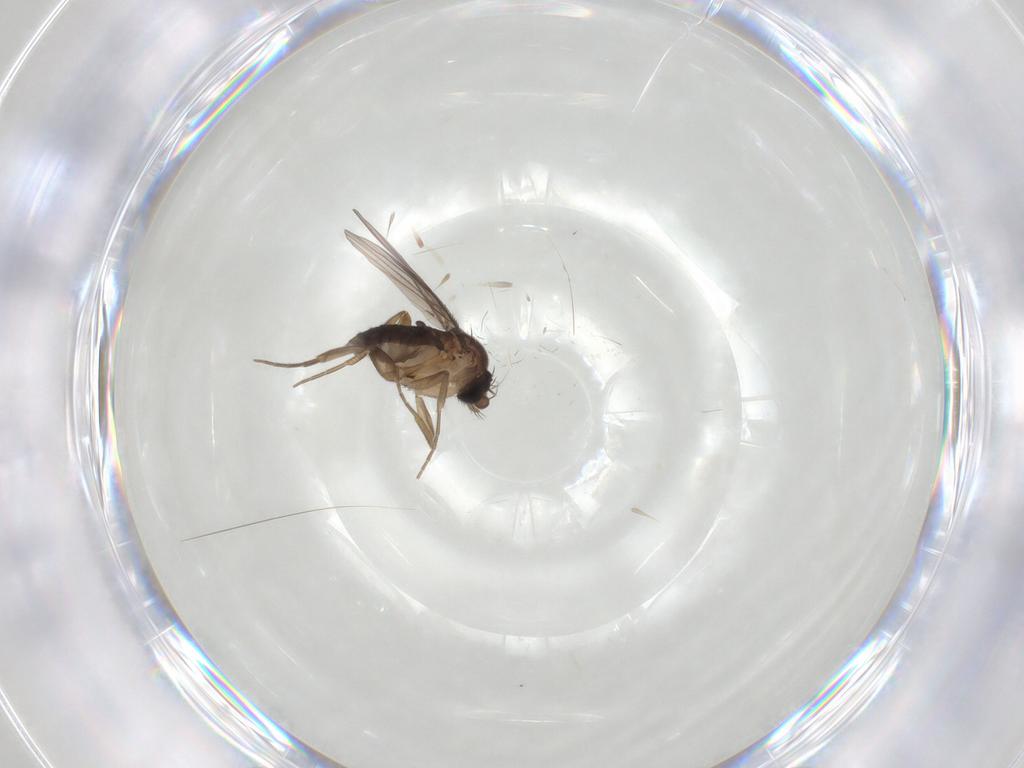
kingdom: Animalia
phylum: Arthropoda
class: Insecta
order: Diptera
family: Chironomidae
